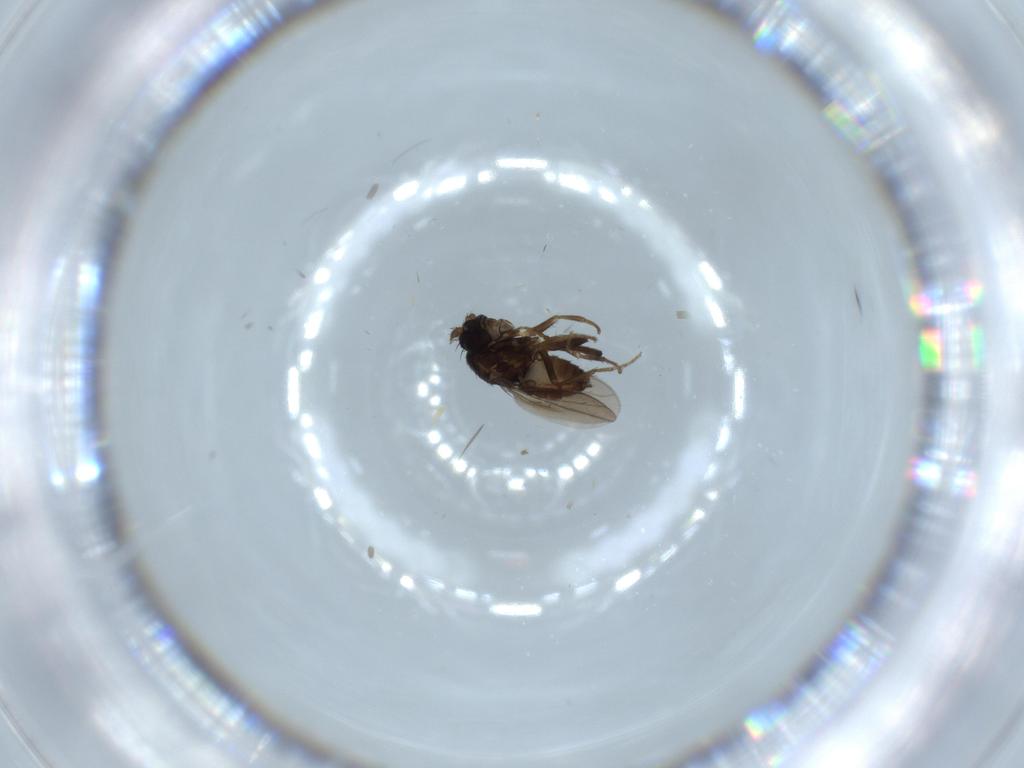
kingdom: Animalia
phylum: Arthropoda
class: Insecta
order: Diptera
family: Sphaeroceridae
